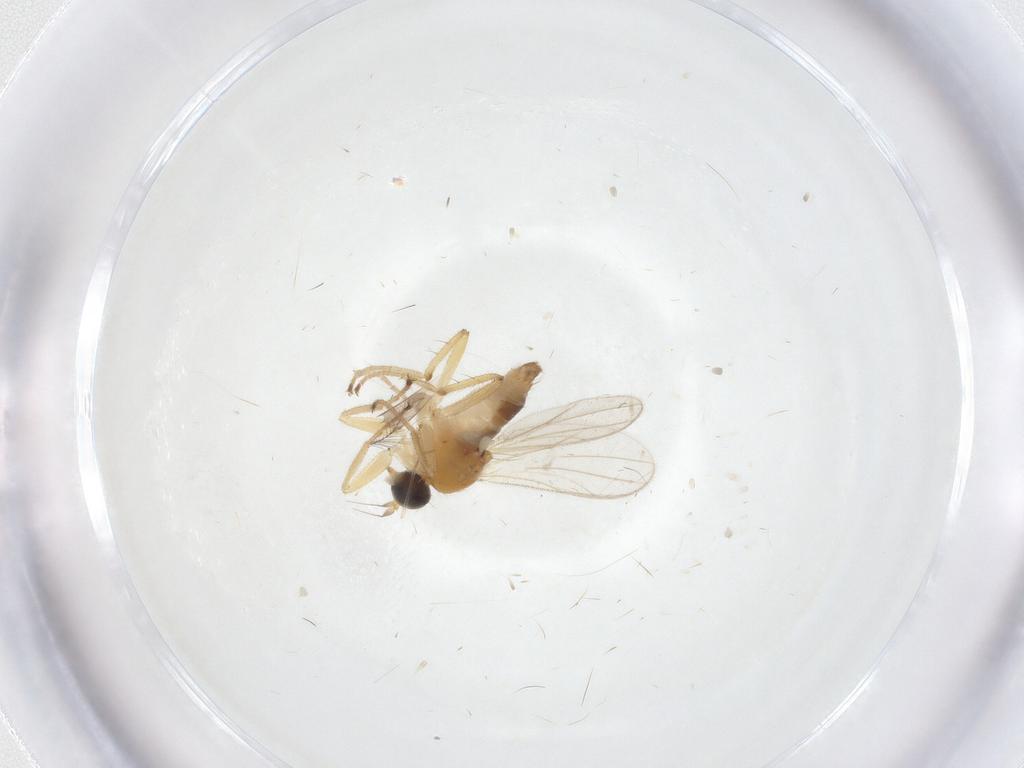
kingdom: Animalia
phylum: Arthropoda
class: Insecta
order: Diptera
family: Hybotidae
